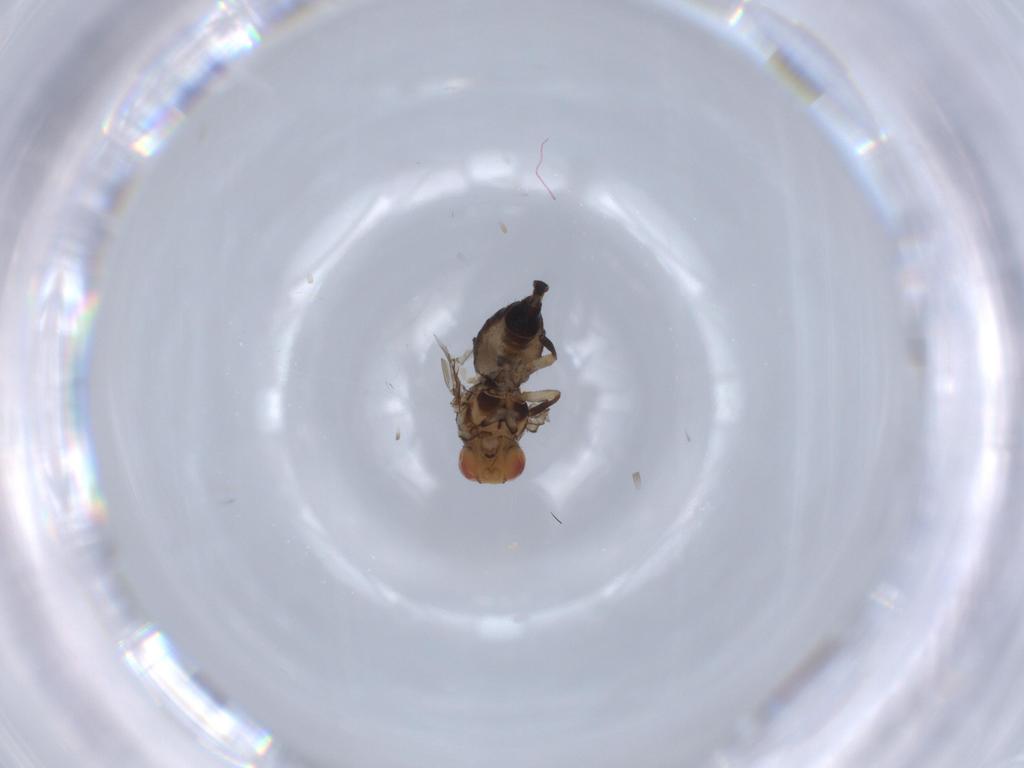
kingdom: Animalia
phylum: Arthropoda
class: Insecta
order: Diptera
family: Agromyzidae
